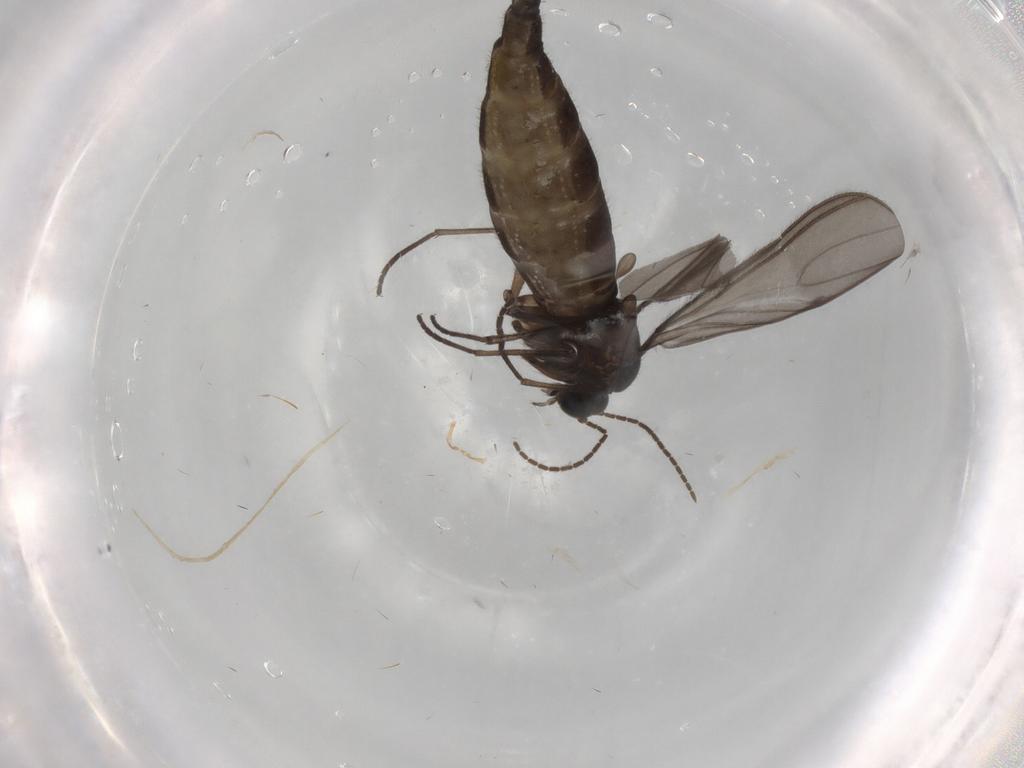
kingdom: Animalia
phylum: Arthropoda
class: Insecta
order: Diptera
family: Sciaridae
